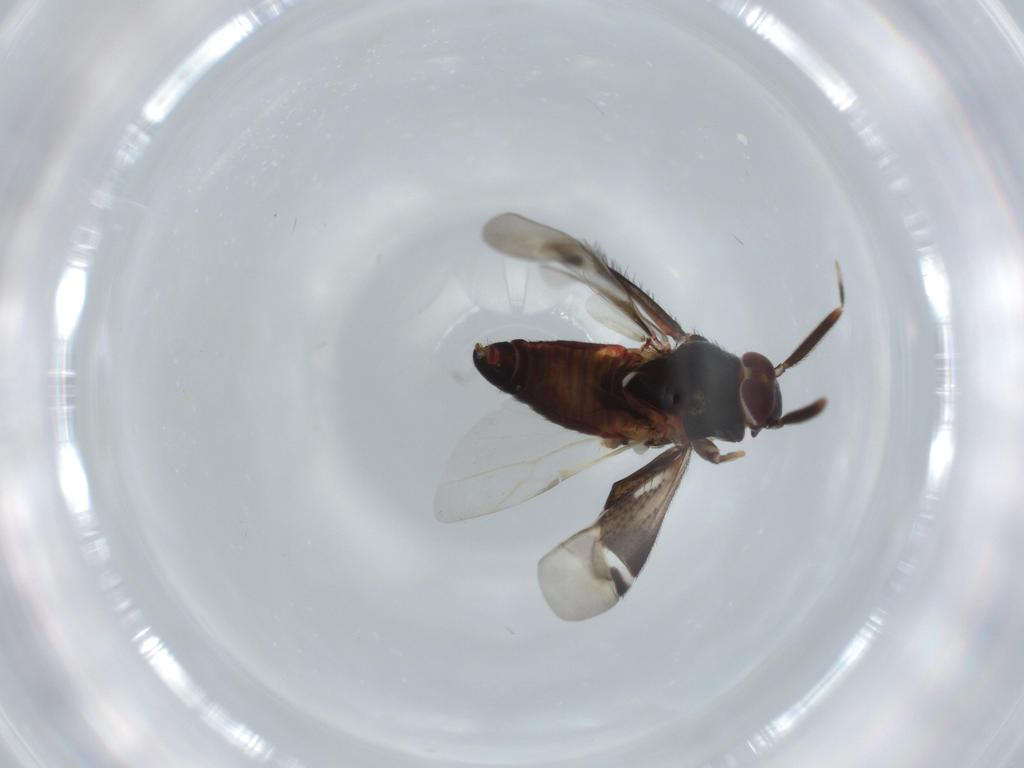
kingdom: Animalia
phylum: Arthropoda
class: Insecta
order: Hemiptera
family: Miridae
